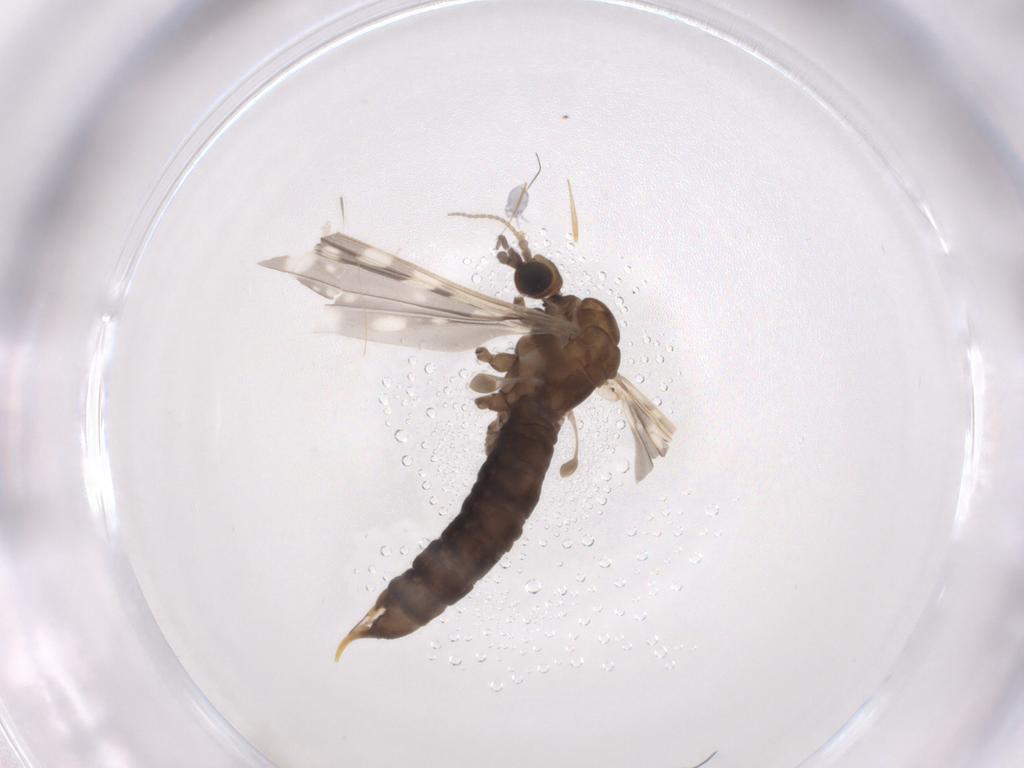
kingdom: Animalia
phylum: Arthropoda
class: Insecta
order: Diptera
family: Limoniidae
